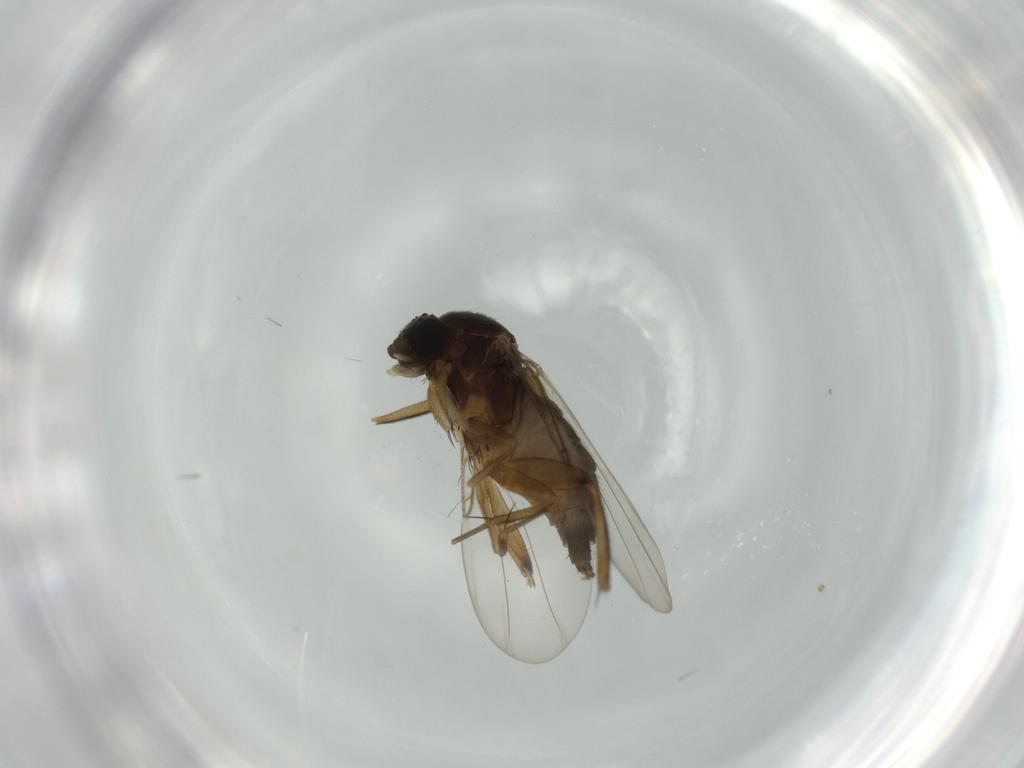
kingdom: Animalia
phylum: Arthropoda
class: Insecta
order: Diptera
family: Phoridae
